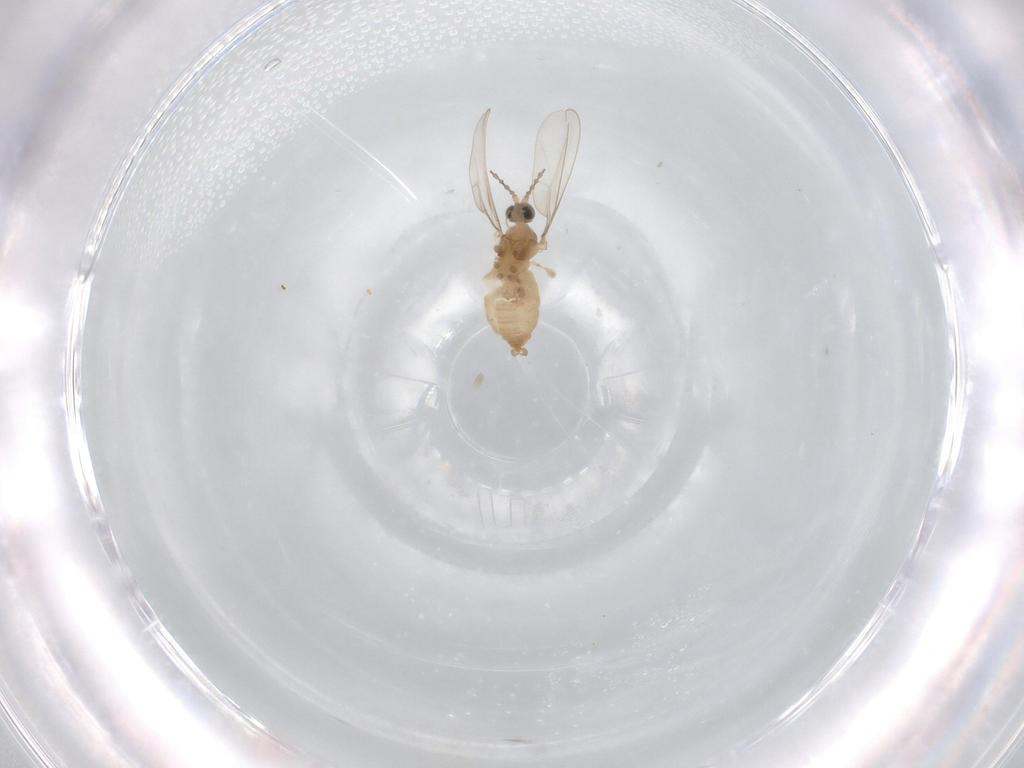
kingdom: Animalia
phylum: Arthropoda
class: Insecta
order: Diptera
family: Cecidomyiidae
